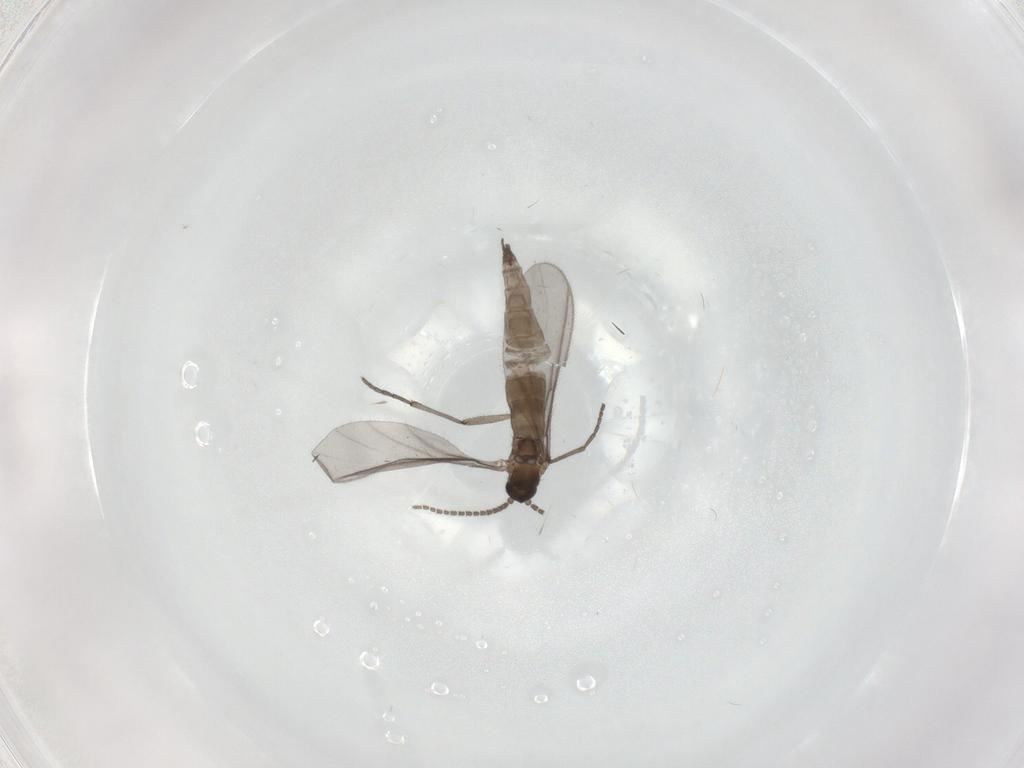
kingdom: Animalia
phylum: Arthropoda
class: Insecta
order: Diptera
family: Sciaridae
